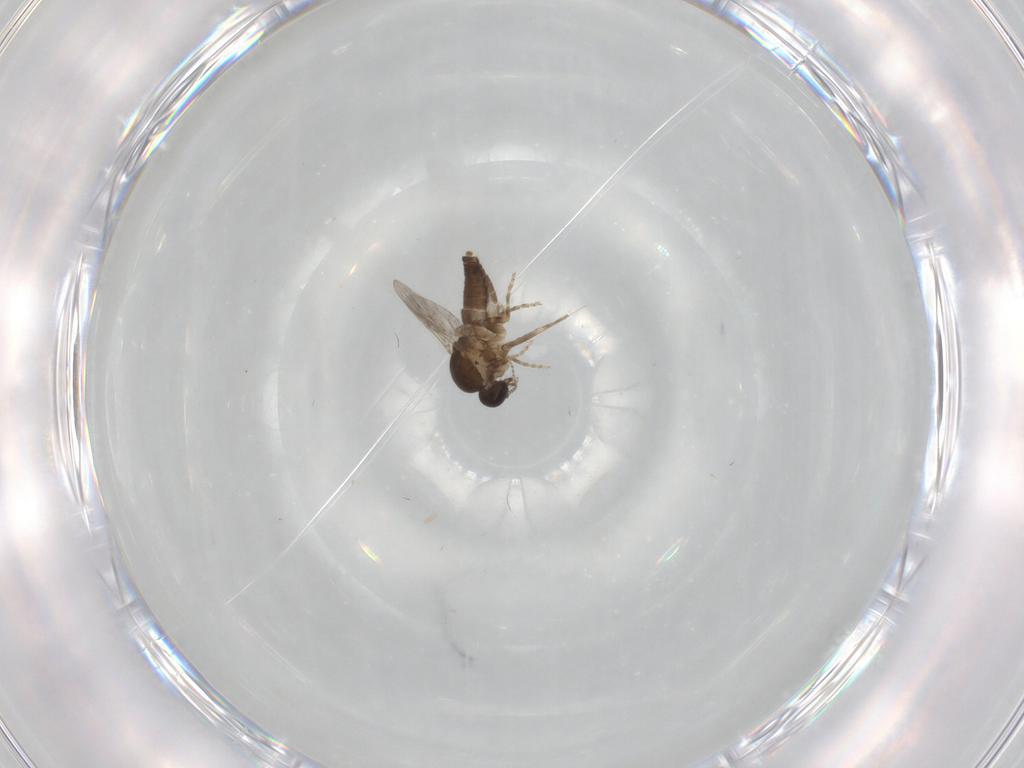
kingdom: Animalia
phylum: Arthropoda
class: Insecta
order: Diptera
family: Ceratopogonidae
